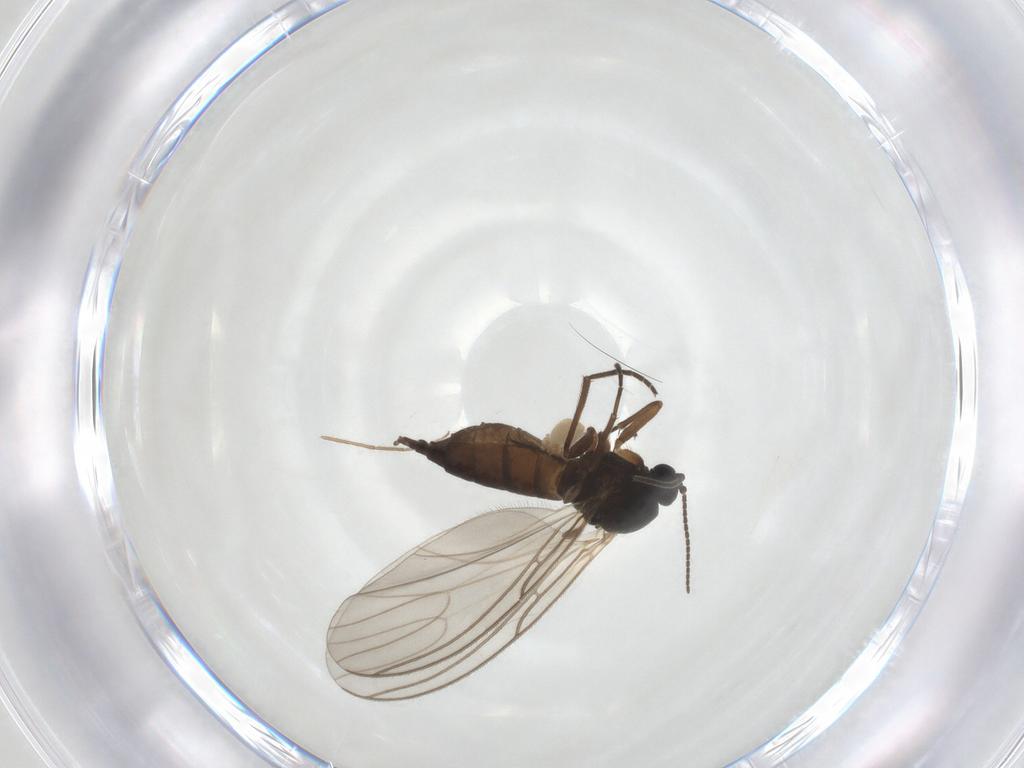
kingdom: Animalia
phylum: Arthropoda
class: Insecta
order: Diptera
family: Sciaridae
